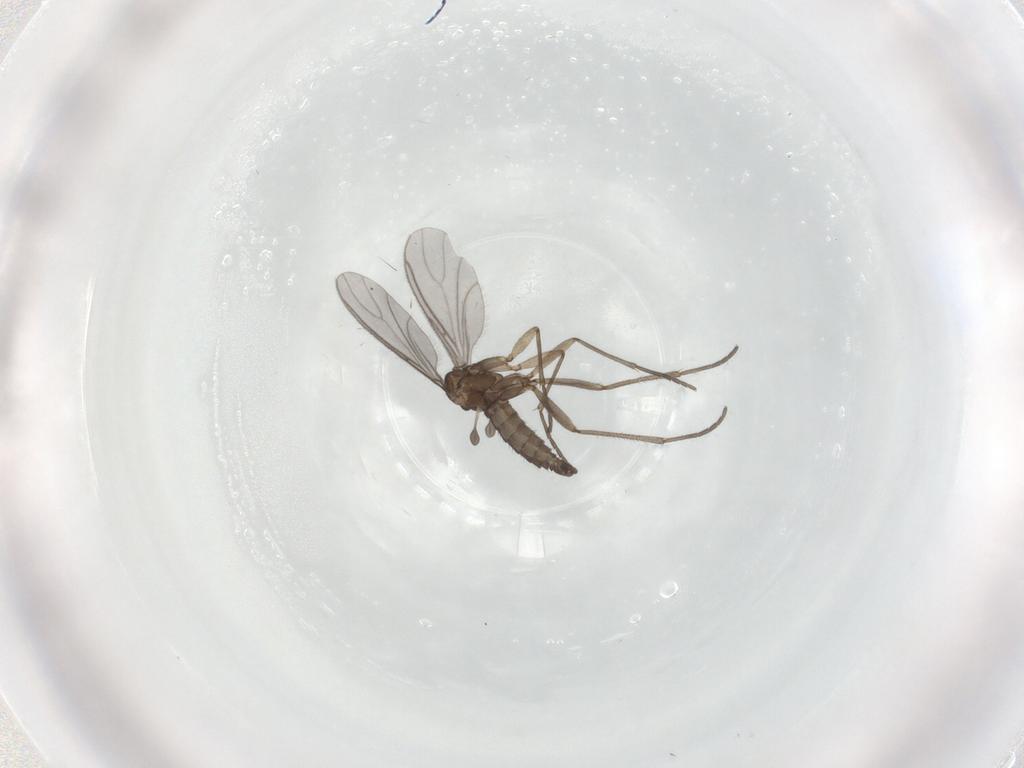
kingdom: Animalia
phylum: Arthropoda
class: Insecta
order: Diptera
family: Sciaridae
